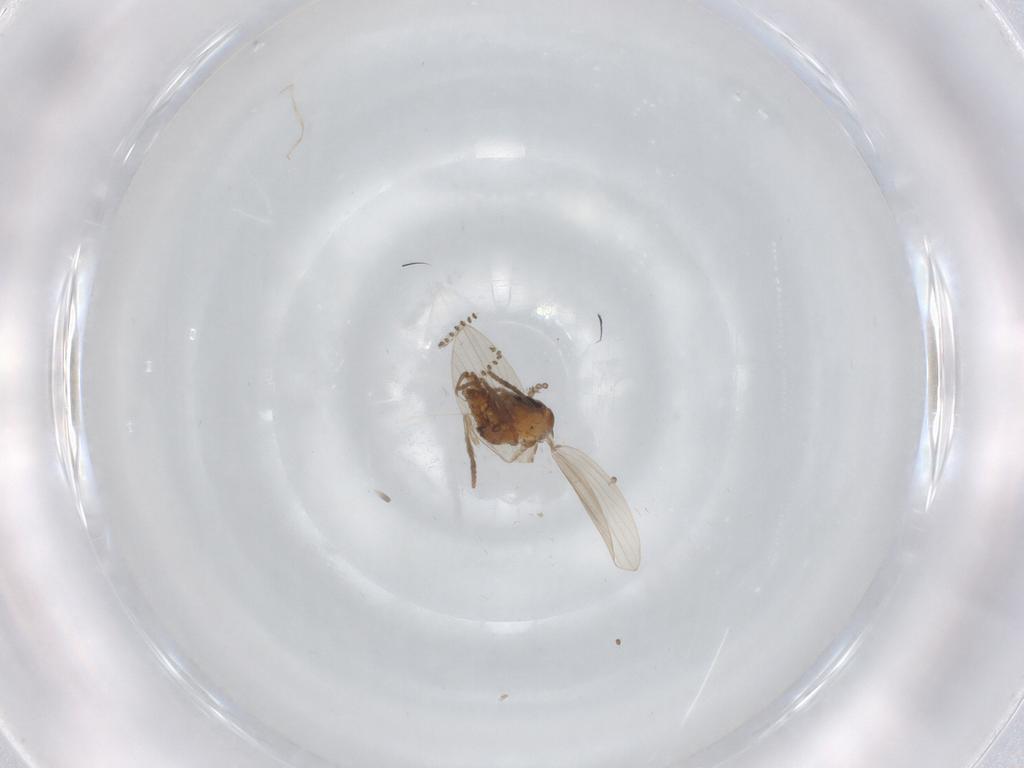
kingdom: Animalia
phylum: Arthropoda
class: Insecta
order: Diptera
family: Psychodidae
